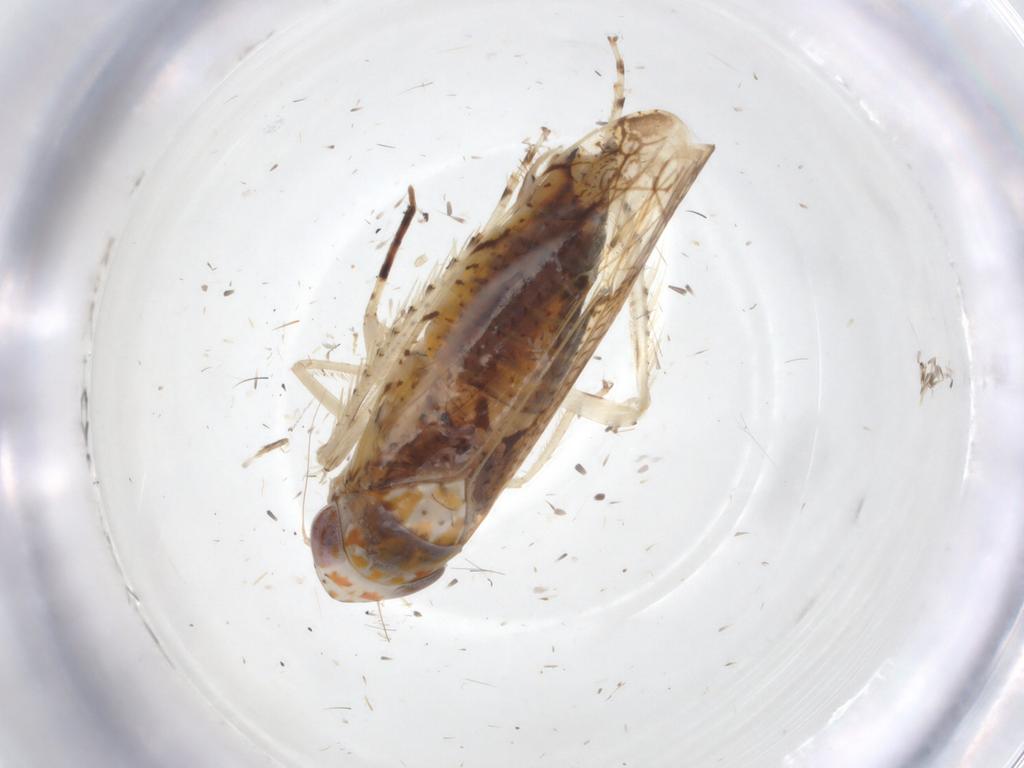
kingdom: Animalia
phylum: Arthropoda
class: Insecta
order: Hemiptera
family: Cicadellidae
